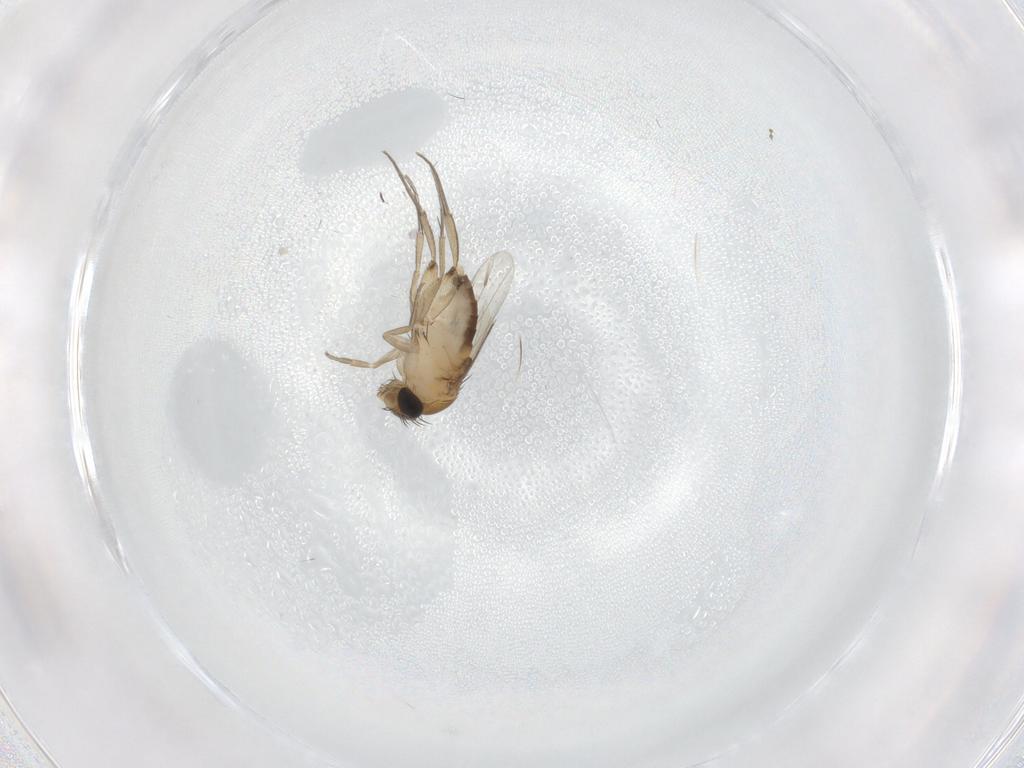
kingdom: Animalia
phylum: Arthropoda
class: Insecta
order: Diptera
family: Phoridae
